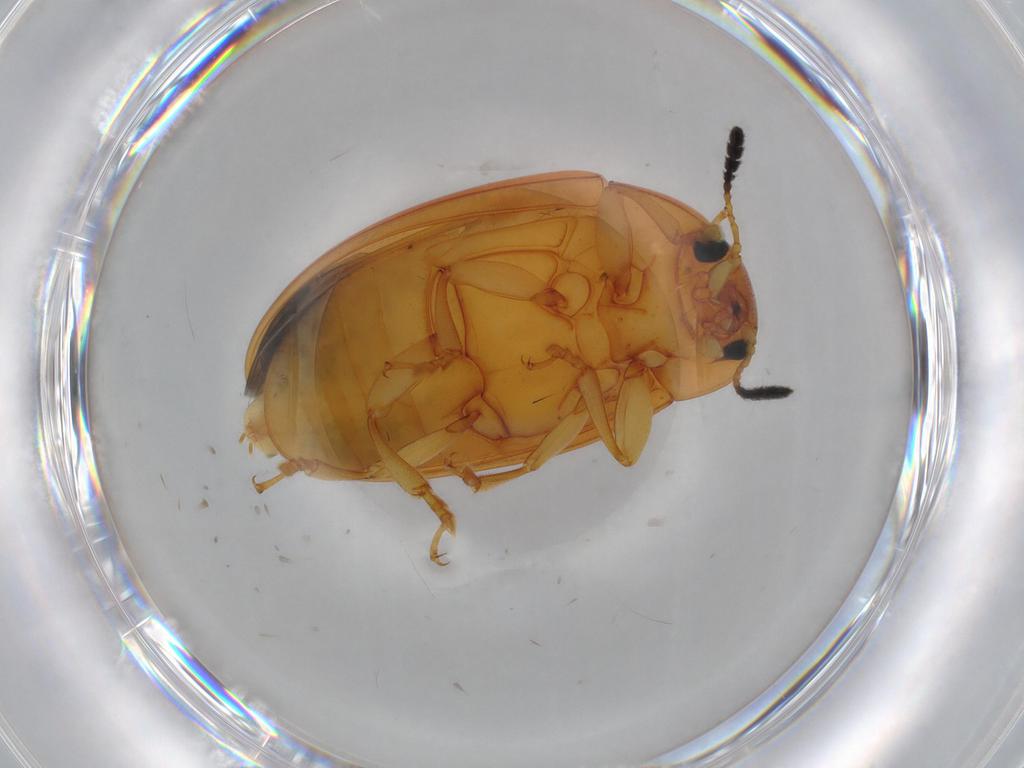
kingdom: Animalia
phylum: Arthropoda
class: Insecta
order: Coleoptera
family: Erotylidae
